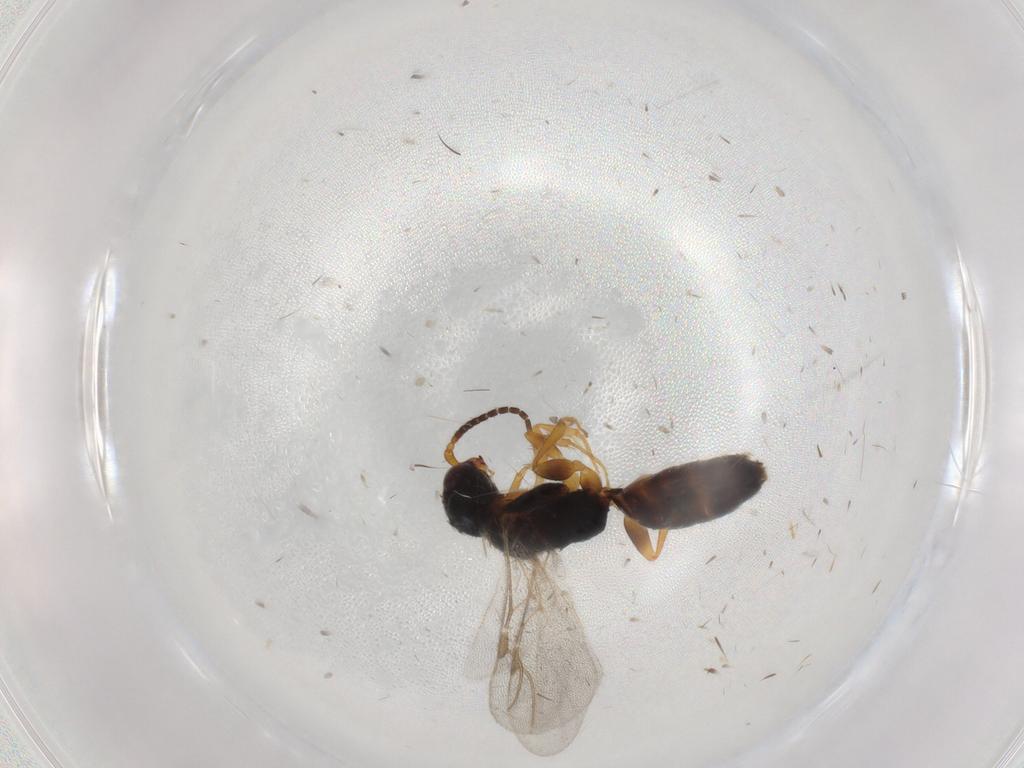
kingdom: Animalia
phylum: Arthropoda
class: Insecta
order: Hymenoptera
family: Bethylidae
